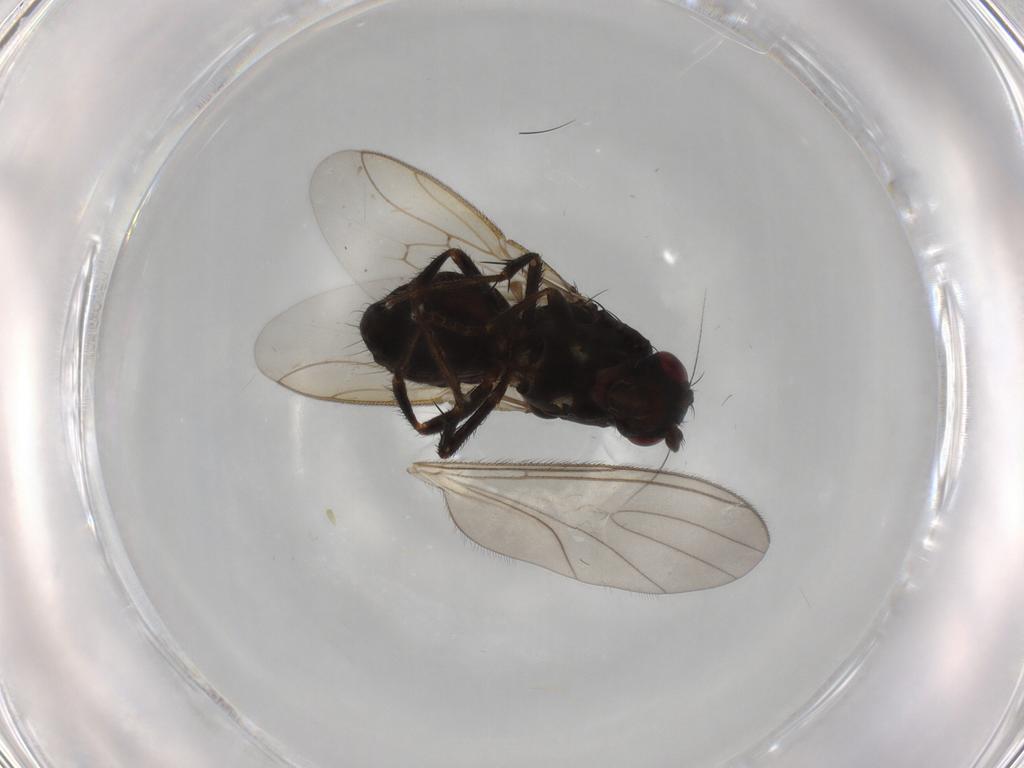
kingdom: Animalia
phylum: Arthropoda
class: Insecta
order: Diptera
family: Sphaeroceridae
